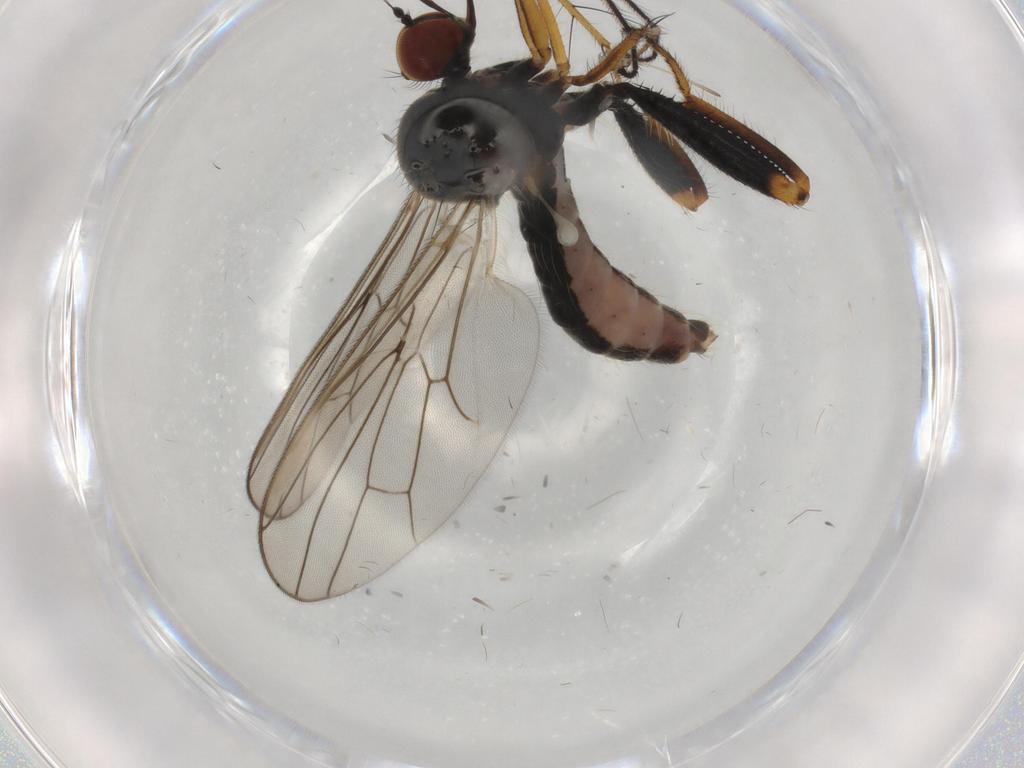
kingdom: Animalia
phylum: Arthropoda
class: Insecta
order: Diptera
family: Hybotidae
